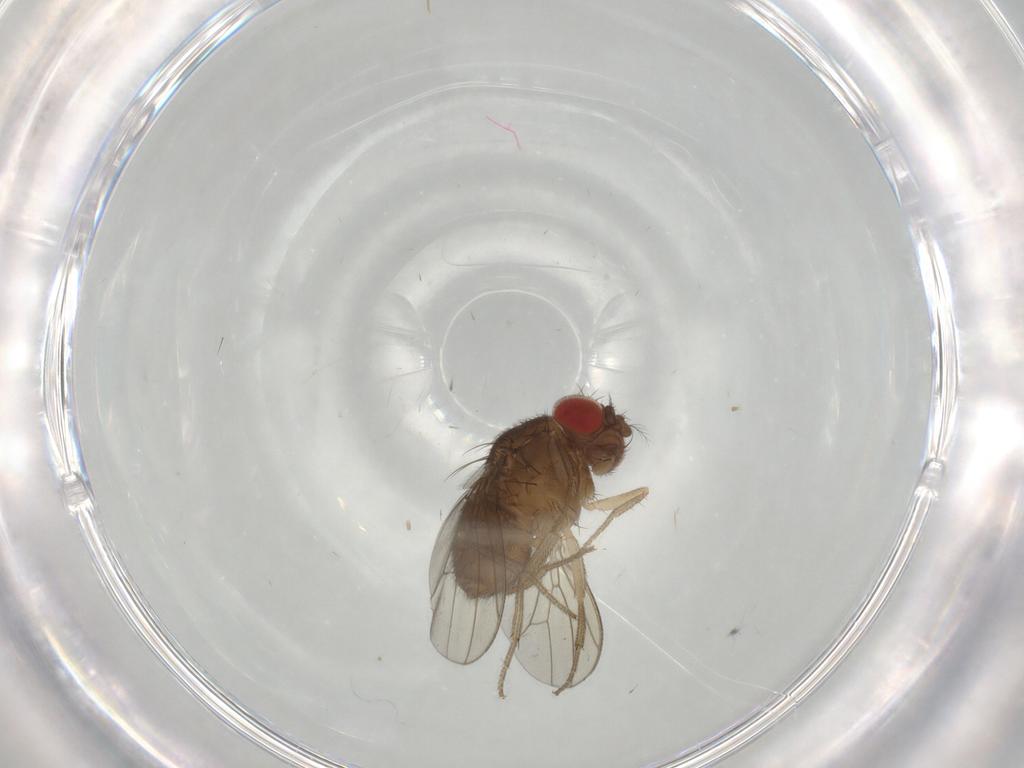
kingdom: Animalia
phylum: Arthropoda
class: Insecta
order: Diptera
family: Drosophilidae
